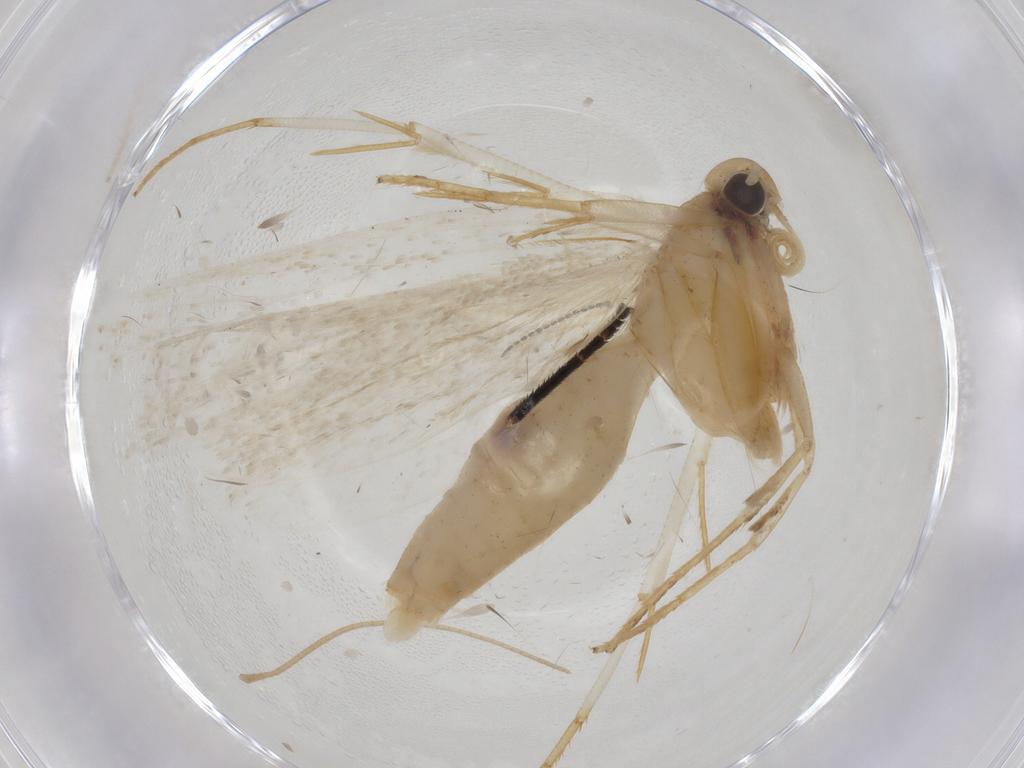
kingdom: Animalia
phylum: Arthropoda
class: Insecta
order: Lepidoptera
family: Gelechiidae
